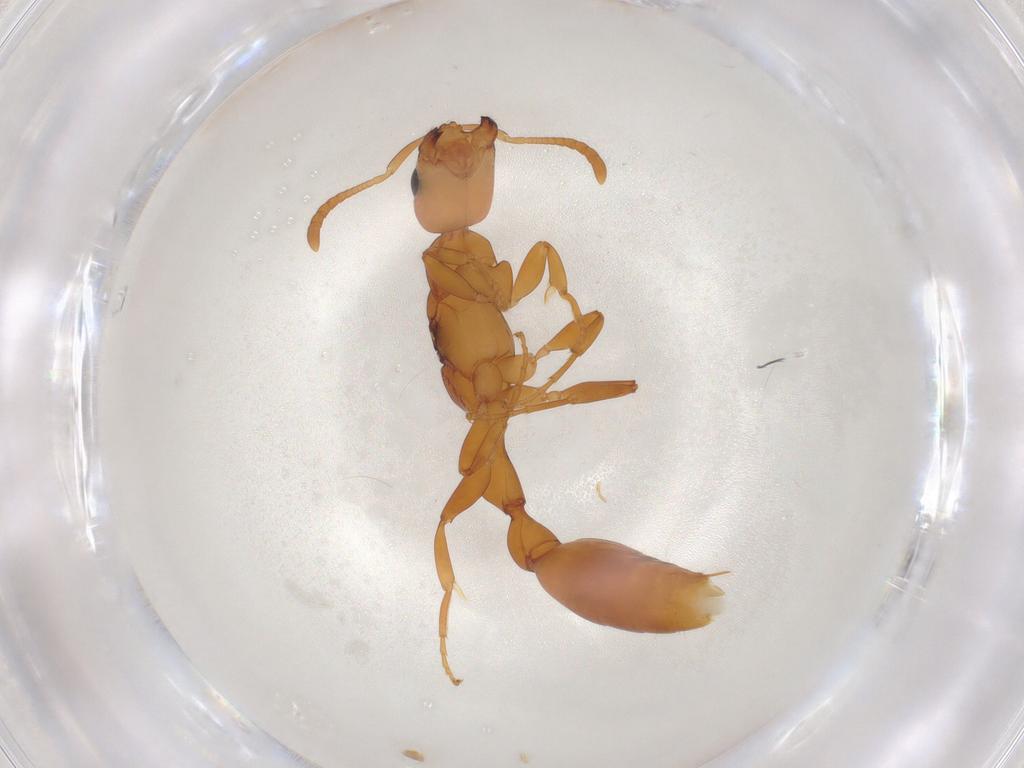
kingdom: Animalia
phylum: Arthropoda
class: Insecta
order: Hymenoptera
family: Formicidae
